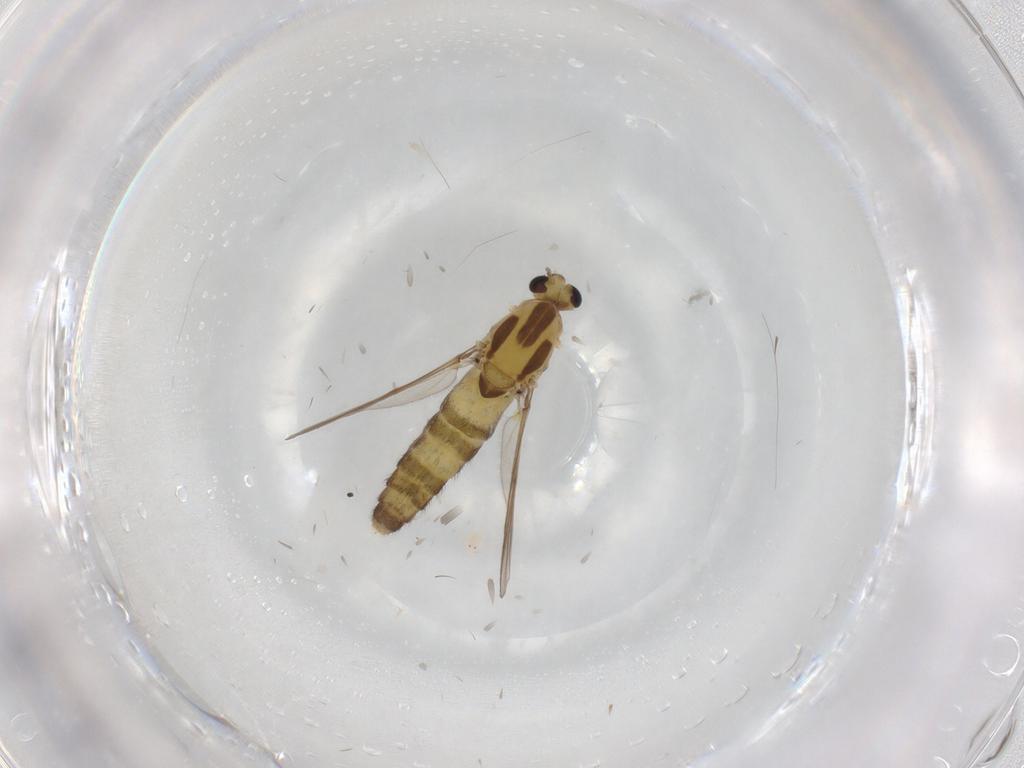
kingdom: Animalia
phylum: Arthropoda
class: Insecta
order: Diptera
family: Chironomidae
